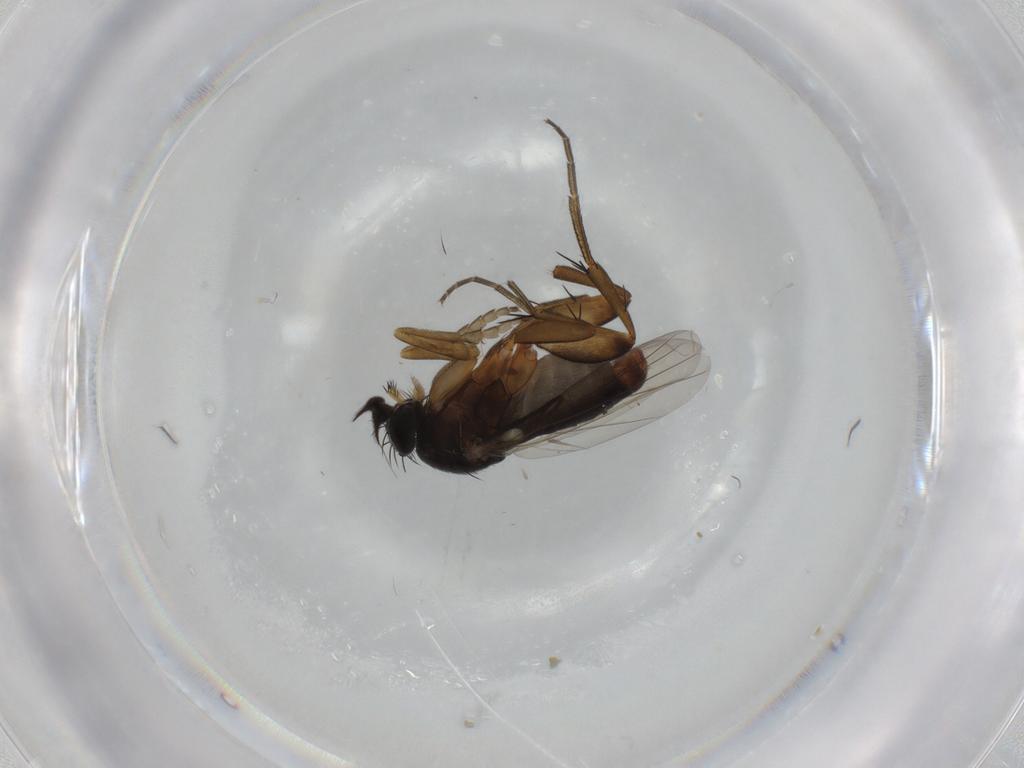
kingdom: Animalia
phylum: Arthropoda
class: Insecta
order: Diptera
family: Phoridae
